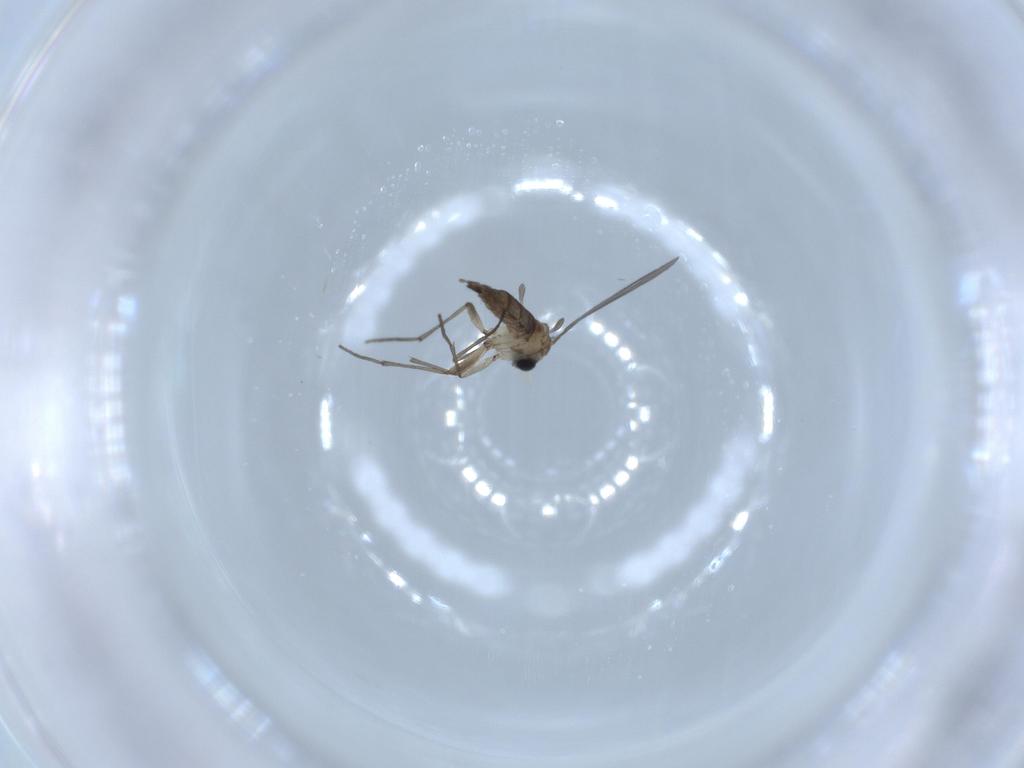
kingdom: Animalia
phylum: Arthropoda
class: Insecta
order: Diptera
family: Sciaridae
